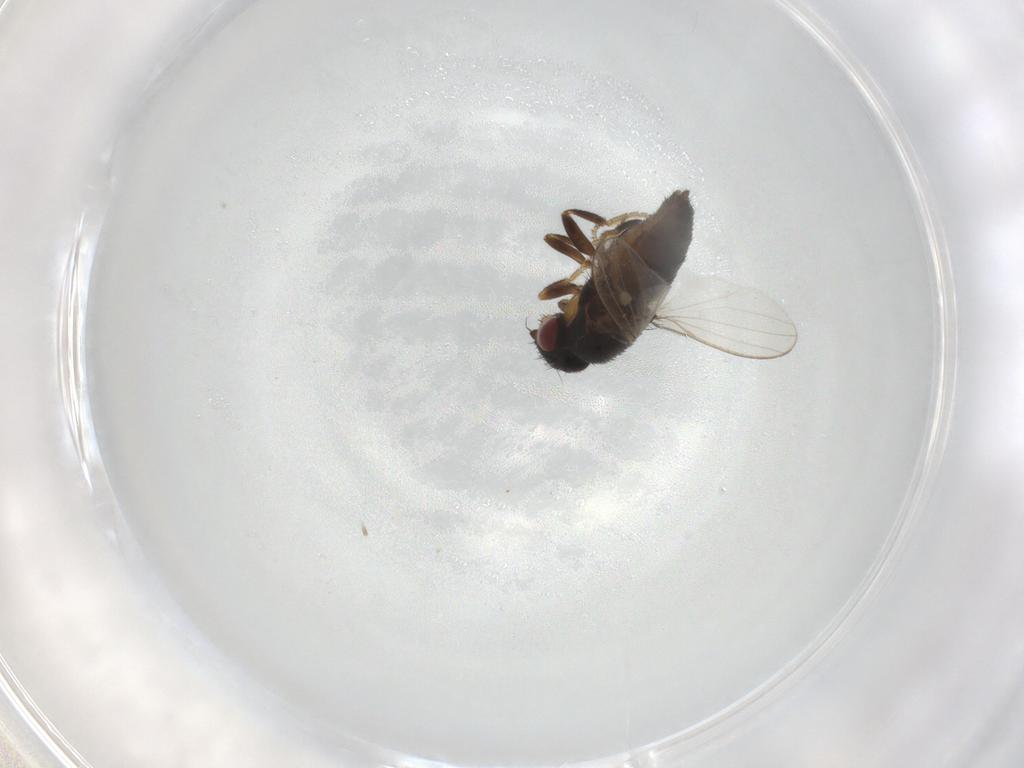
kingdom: Animalia
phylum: Arthropoda
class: Insecta
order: Diptera
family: Milichiidae
